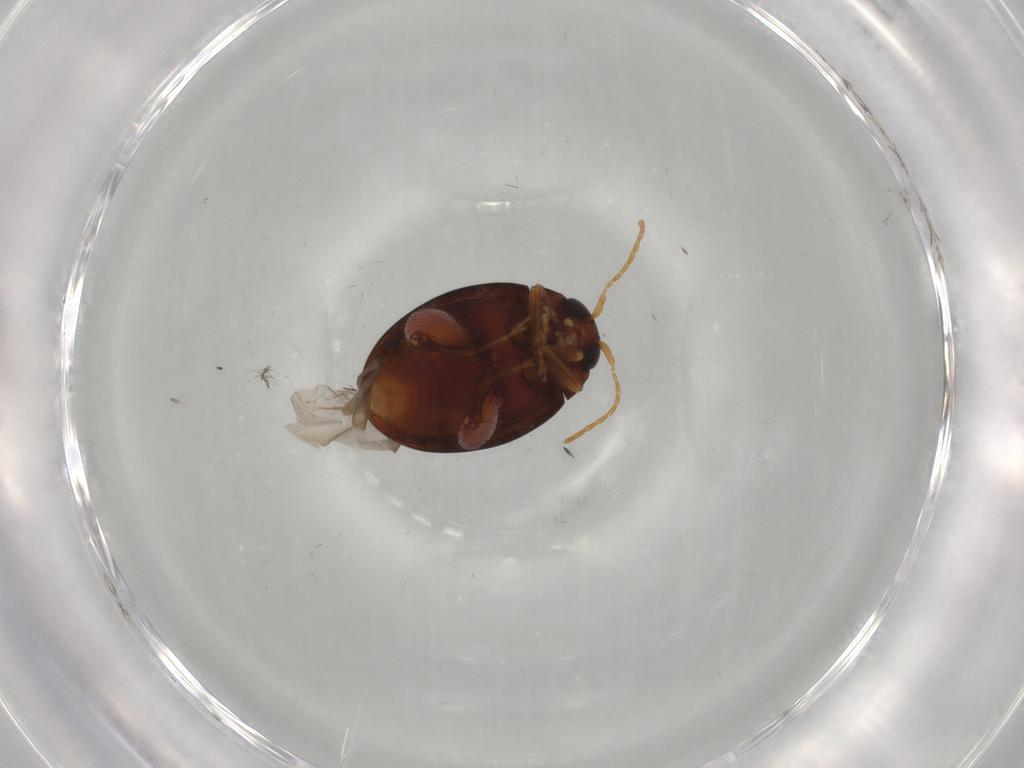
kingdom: Animalia
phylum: Arthropoda
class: Insecta
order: Coleoptera
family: Chrysomelidae
